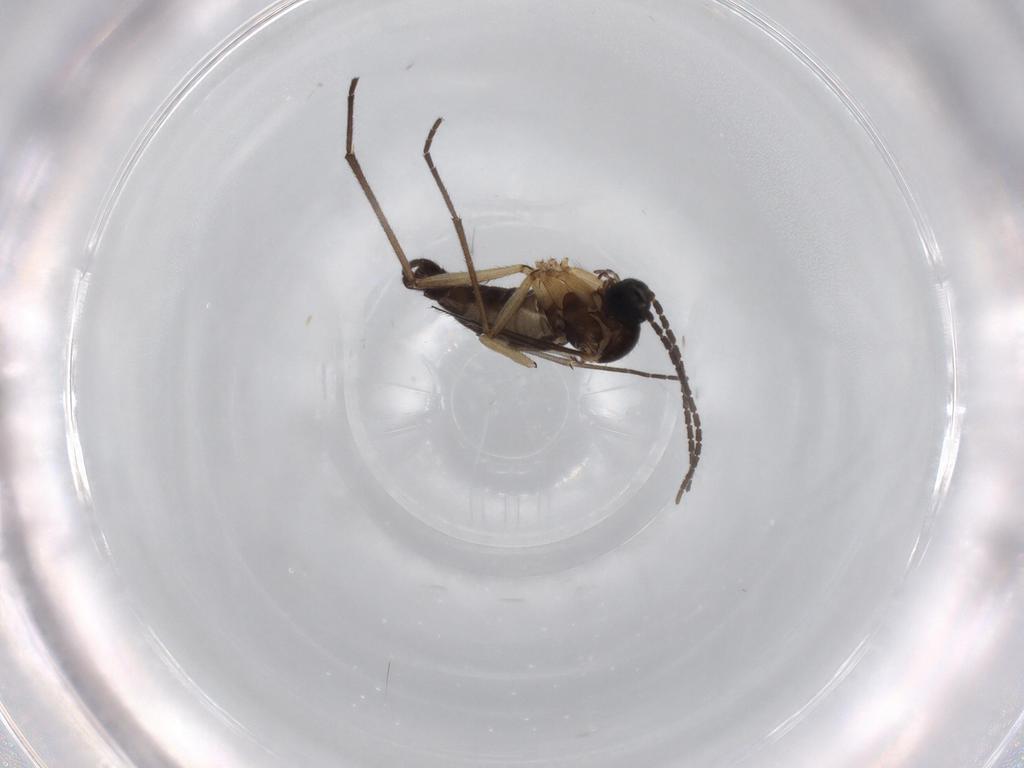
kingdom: Animalia
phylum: Arthropoda
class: Insecta
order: Diptera
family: Sciaridae
